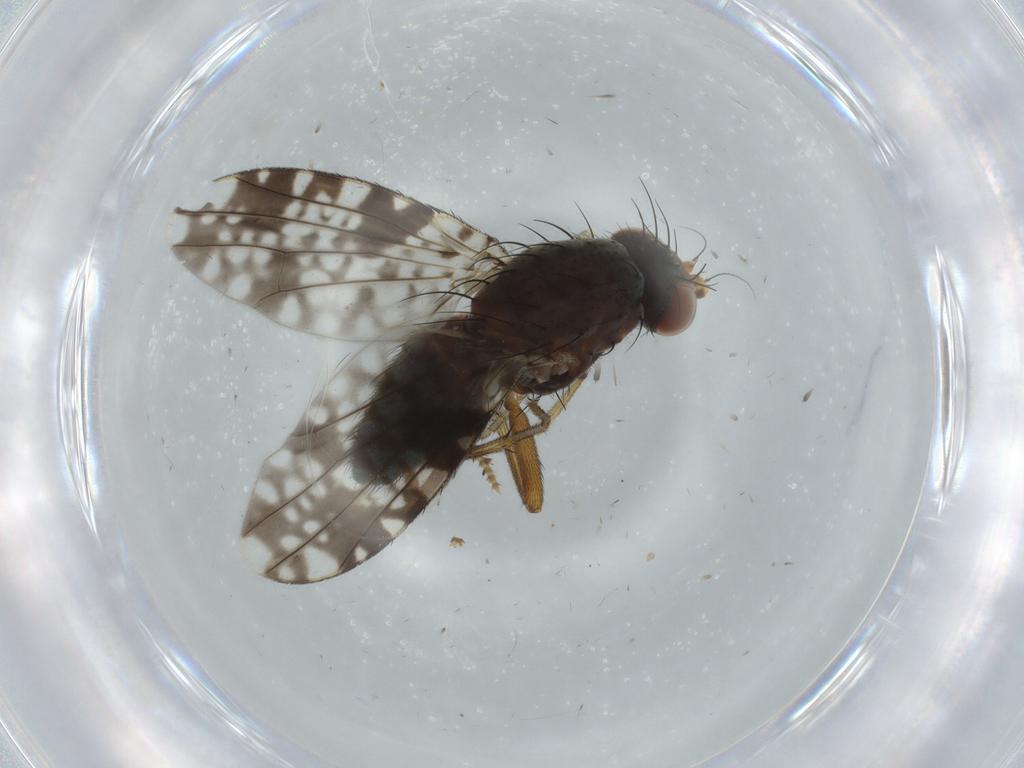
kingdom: Animalia
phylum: Arthropoda
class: Insecta
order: Diptera
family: Tephritidae
